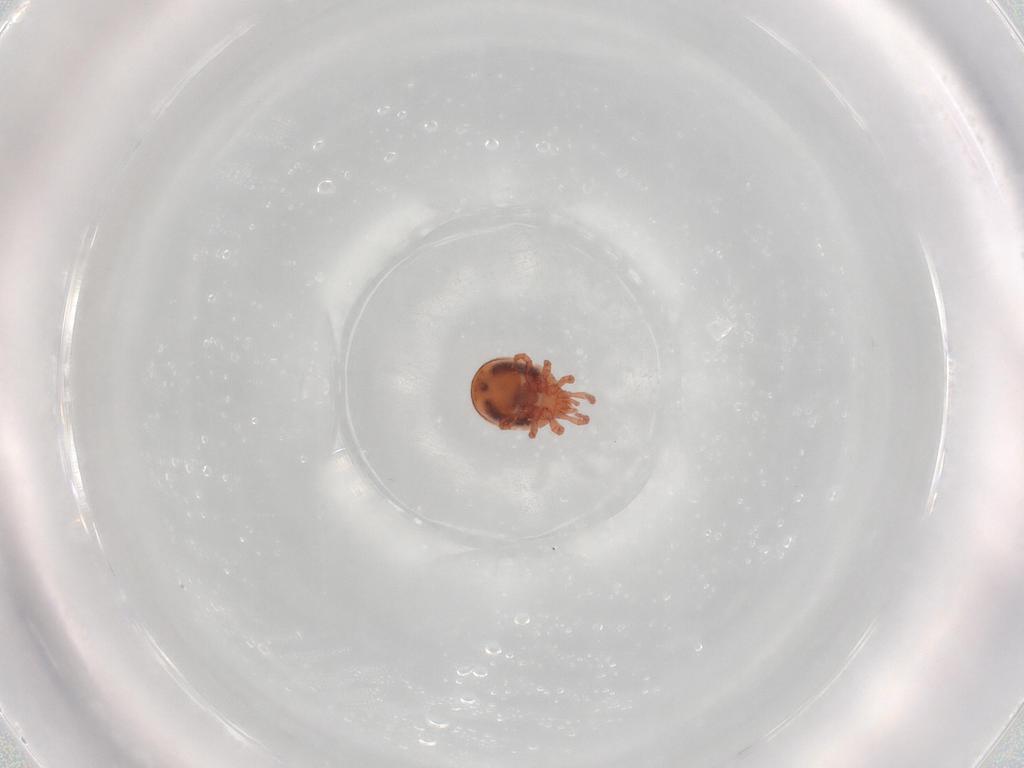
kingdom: Animalia
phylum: Arthropoda
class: Arachnida
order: Mesostigmata
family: Zerconidae
